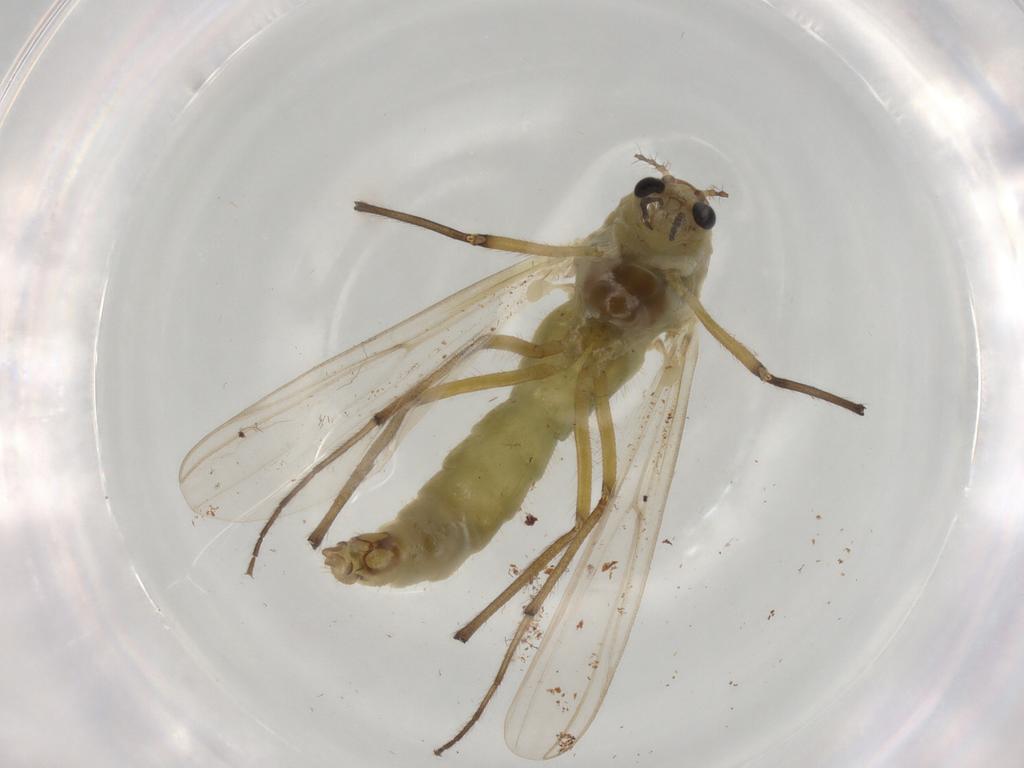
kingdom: Animalia
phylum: Arthropoda
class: Insecta
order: Diptera
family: Chironomidae
